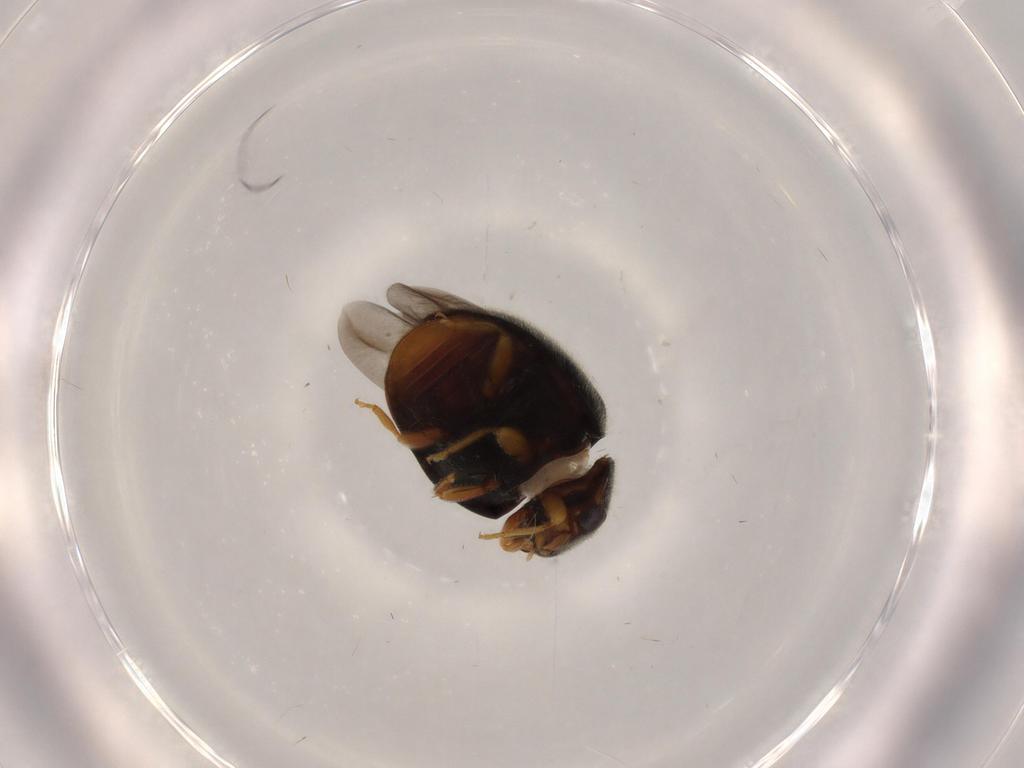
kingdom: Animalia
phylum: Arthropoda
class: Insecta
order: Coleoptera
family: Coccinellidae
